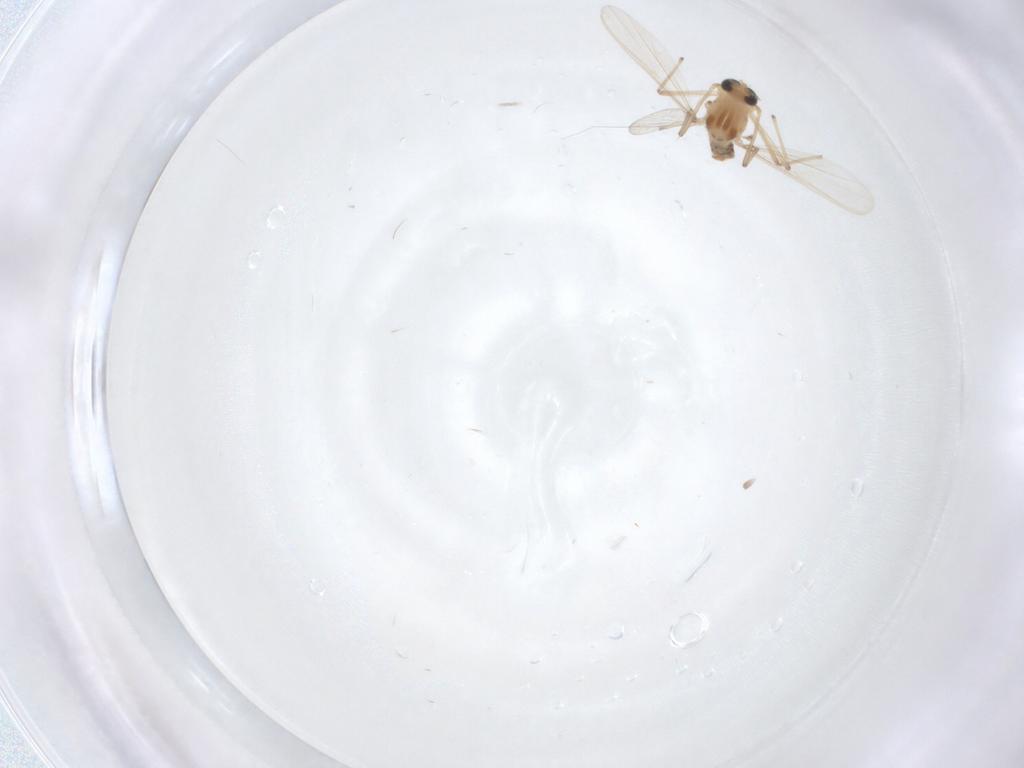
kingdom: Animalia
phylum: Arthropoda
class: Insecta
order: Diptera
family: Chironomidae
